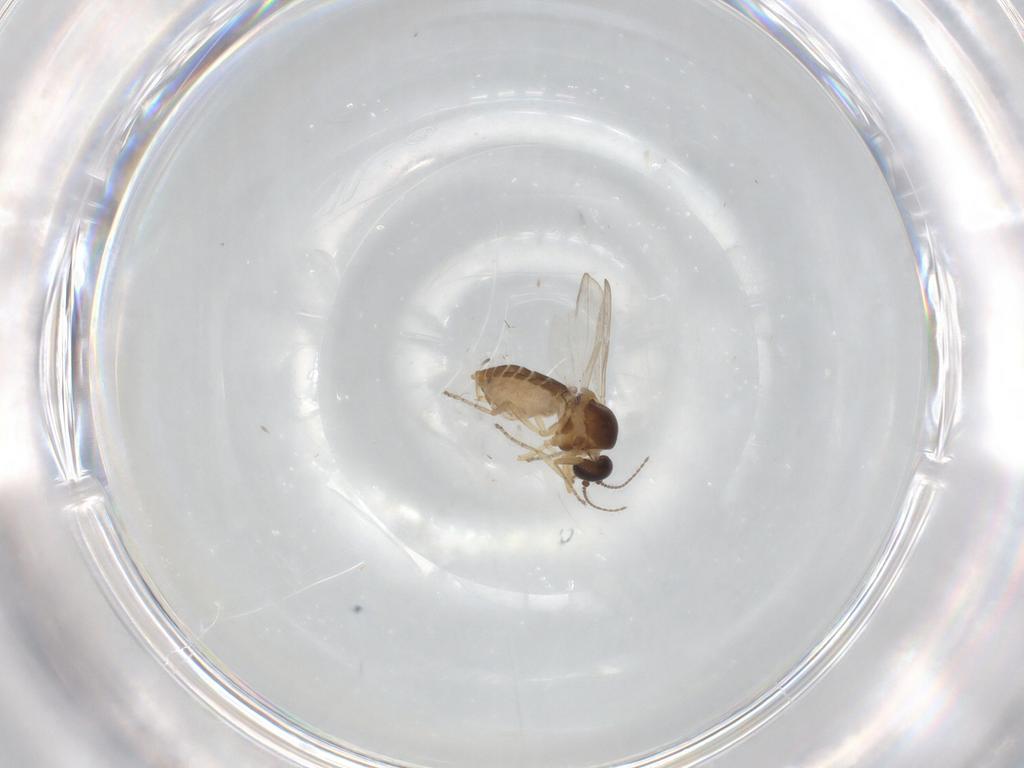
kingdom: Animalia
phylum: Arthropoda
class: Insecta
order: Diptera
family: Ceratopogonidae
